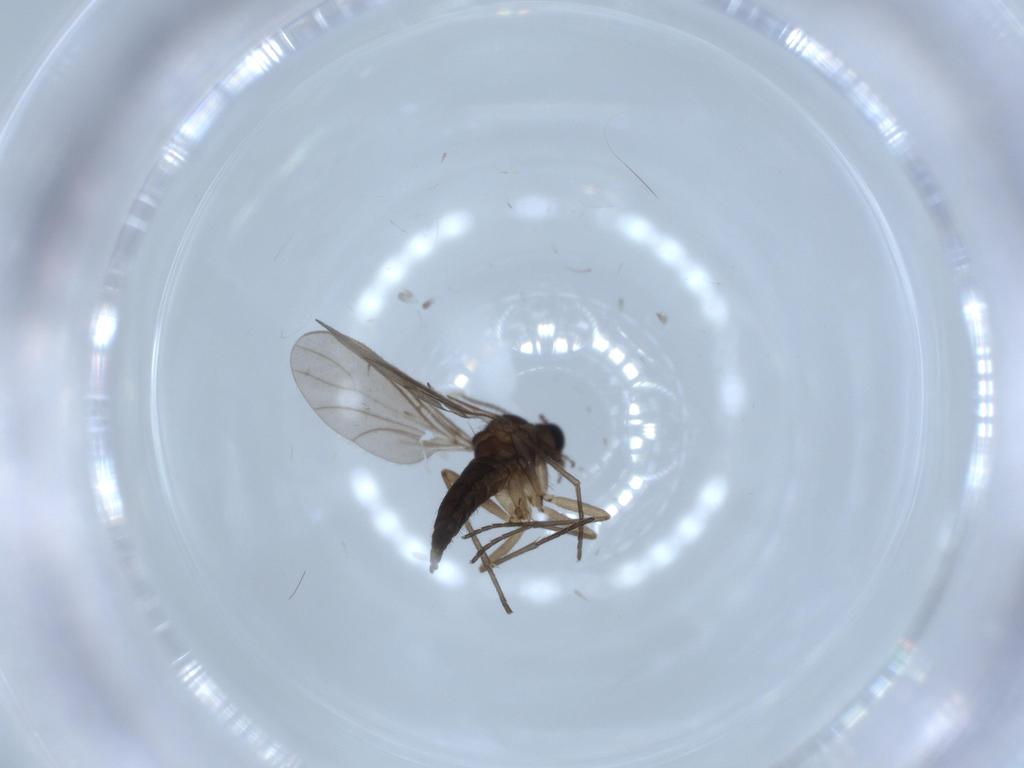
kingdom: Animalia
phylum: Arthropoda
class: Insecta
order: Diptera
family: Sciaridae
